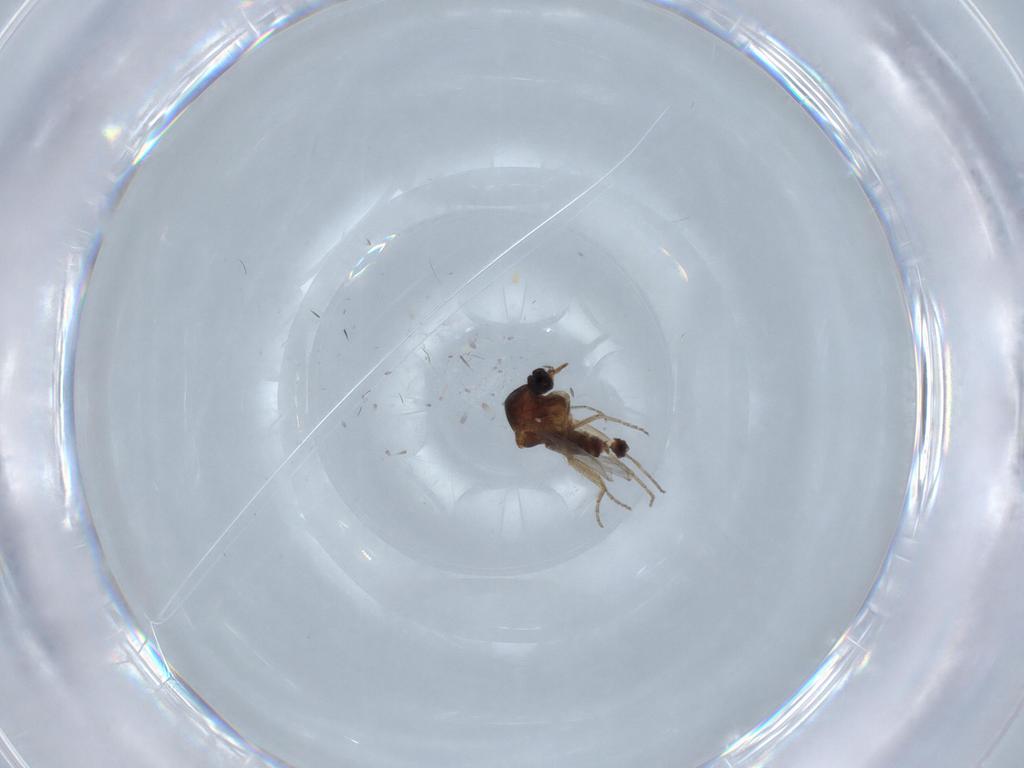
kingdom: Animalia
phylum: Arthropoda
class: Insecta
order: Diptera
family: Ceratopogonidae
